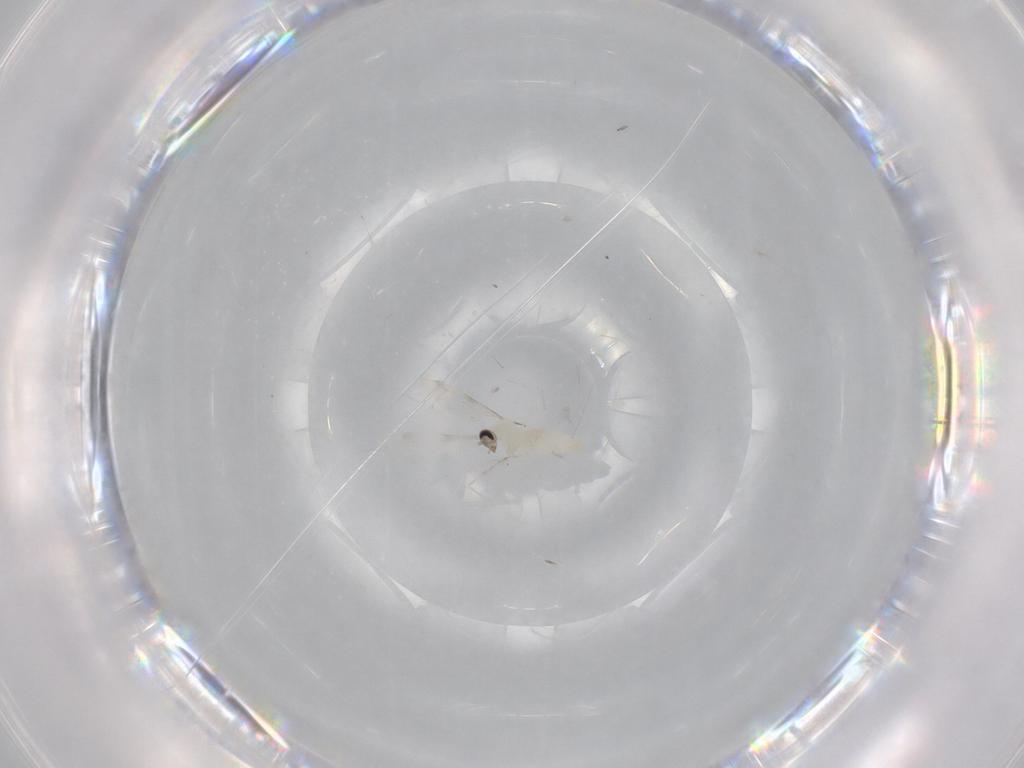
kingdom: Animalia
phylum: Arthropoda
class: Insecta
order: Diptera
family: Cecidomyiidae
